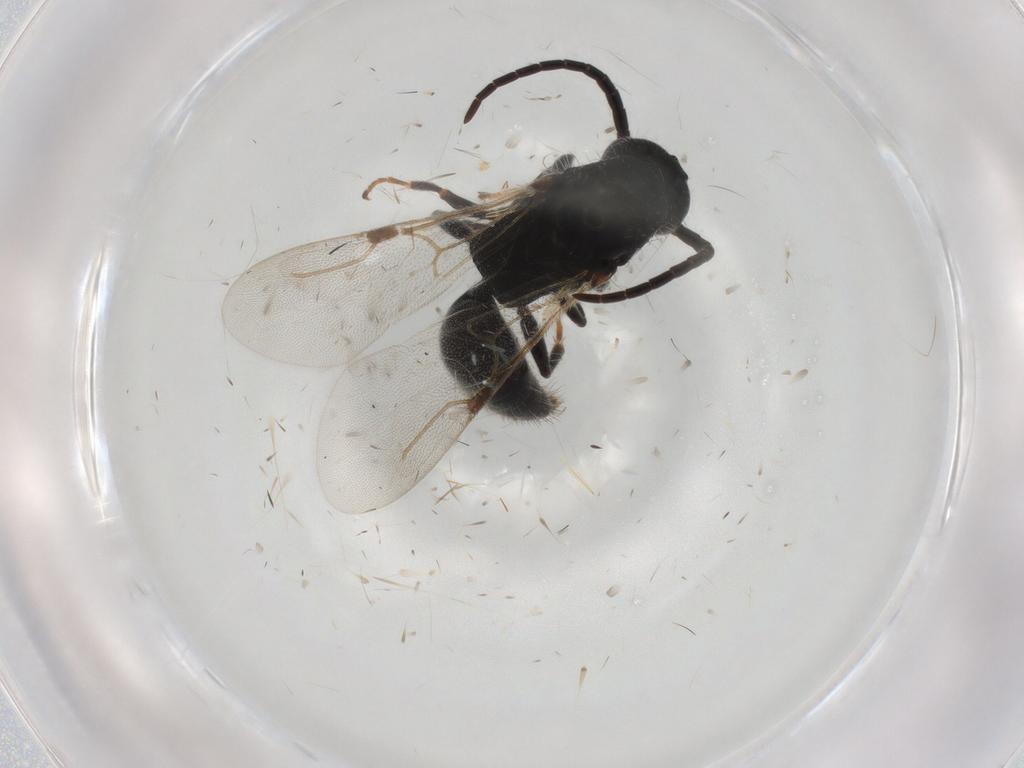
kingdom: Animalia
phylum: Arthropoda
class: Insecta
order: Hymenoptera
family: Bethylidae
